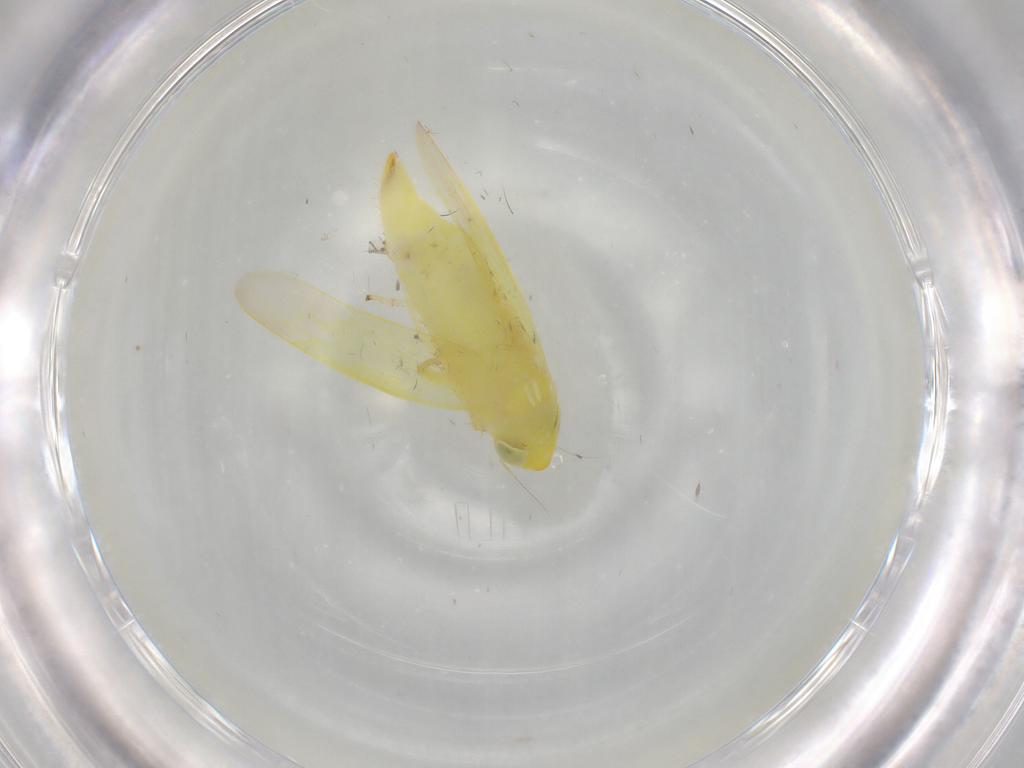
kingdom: Animalia
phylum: Arthropoda
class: Insecta
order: Hemiptera
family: Cicadellidae
